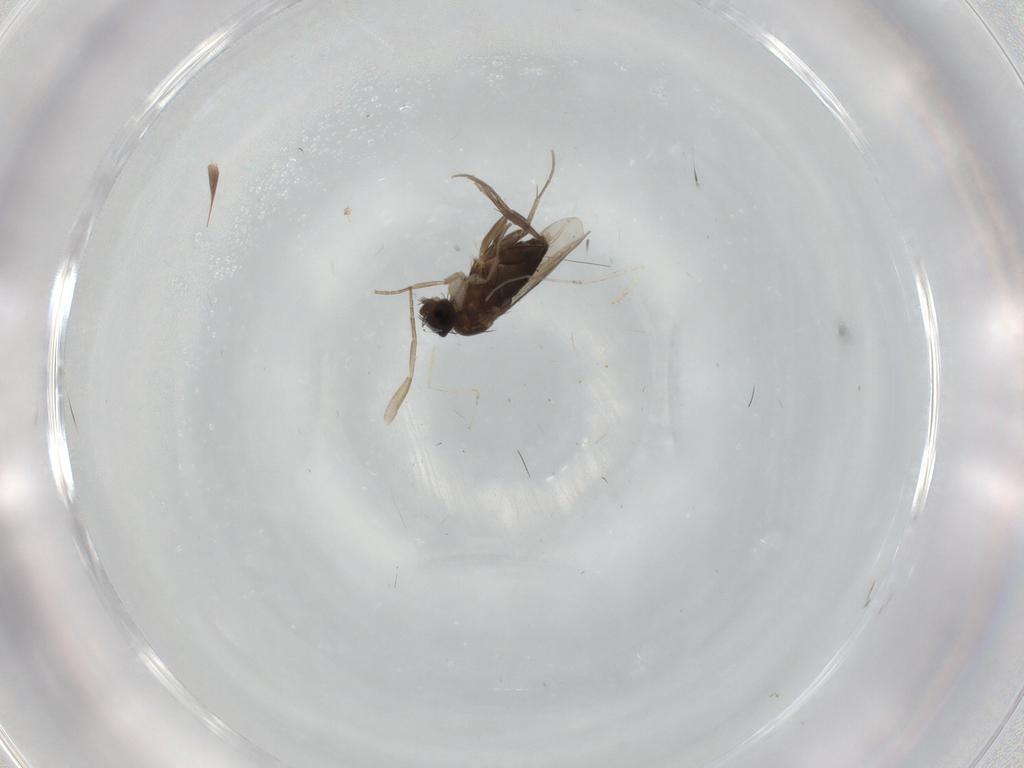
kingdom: Animalia
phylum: Arthropoda
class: Insecta
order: Diptera
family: Phoridae
